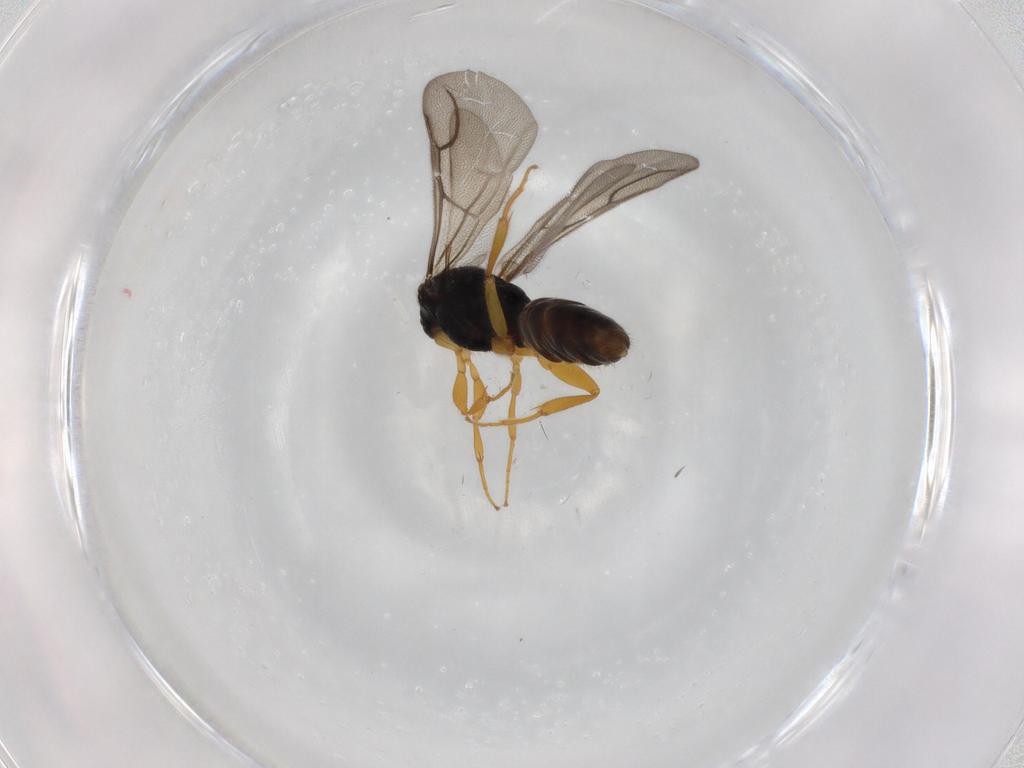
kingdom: Animalia
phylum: Arthropoda
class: Insecta
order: Hymenoptera
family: Bethylidae
